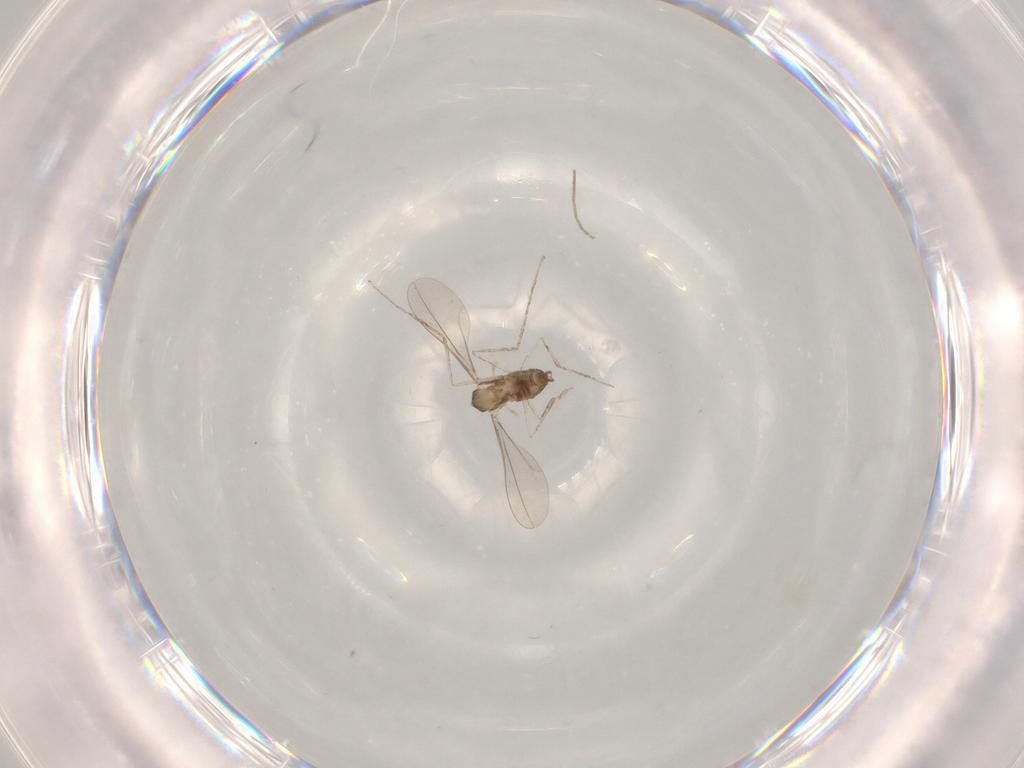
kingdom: Animalia
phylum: Arthropoda
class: Insecta
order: Diptera
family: Cecidomyiidae
